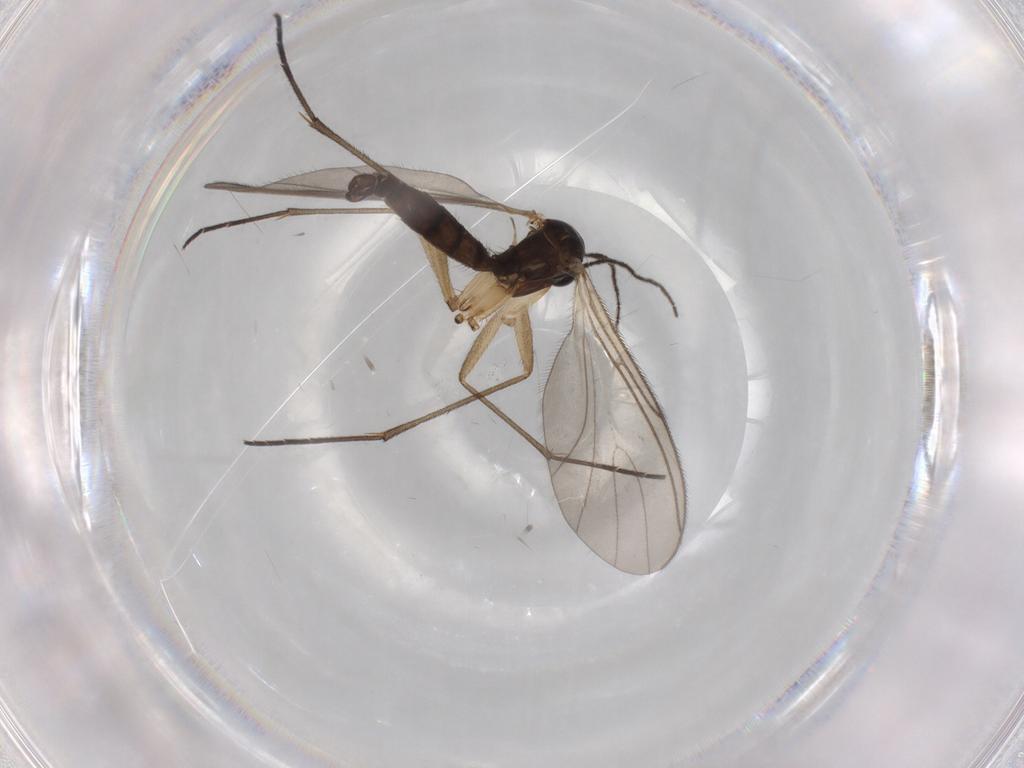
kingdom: Animalia
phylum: Arthropoda
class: Insecta
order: Diptera
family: Sciaridae
